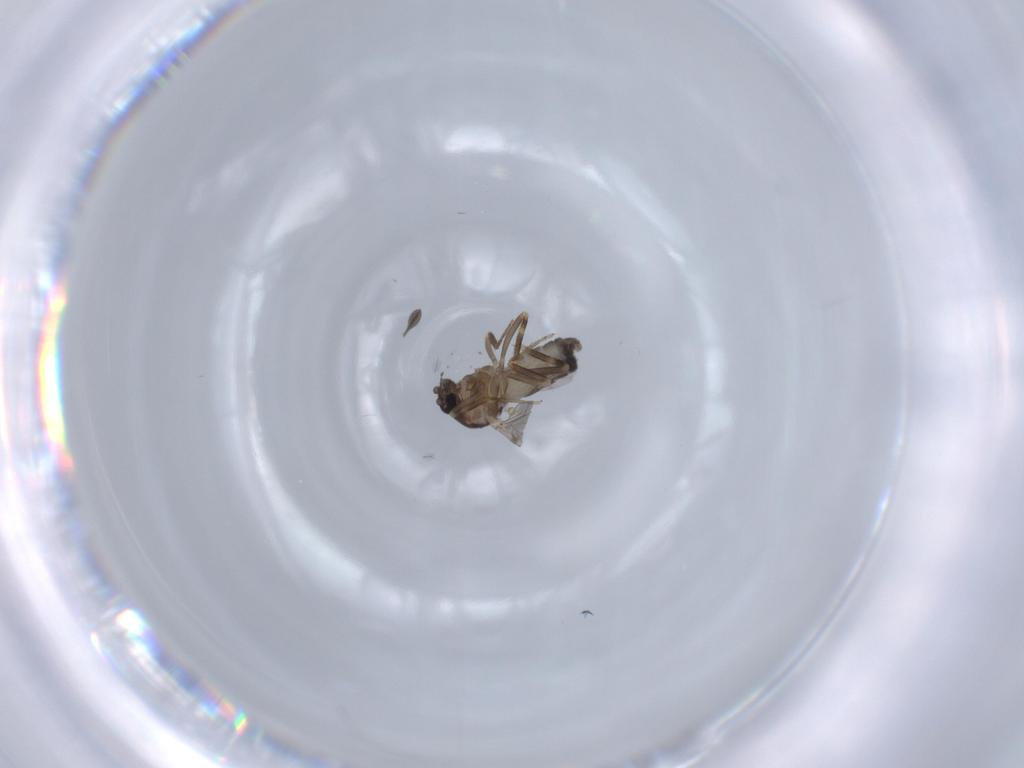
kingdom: Animalia
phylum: Arthropoda
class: Insecta
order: Diptera
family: Ceratopogonidae
